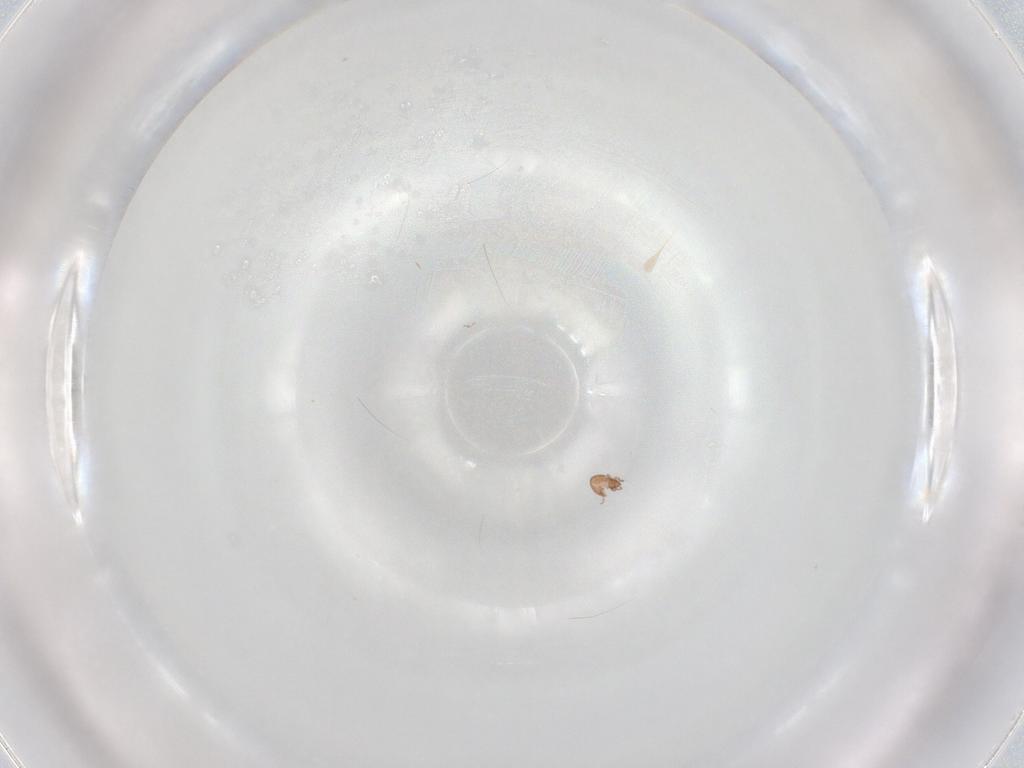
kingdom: Animalia
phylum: Arthropoda
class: Arachnida
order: Sarcoptiformes
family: Oppiidae
